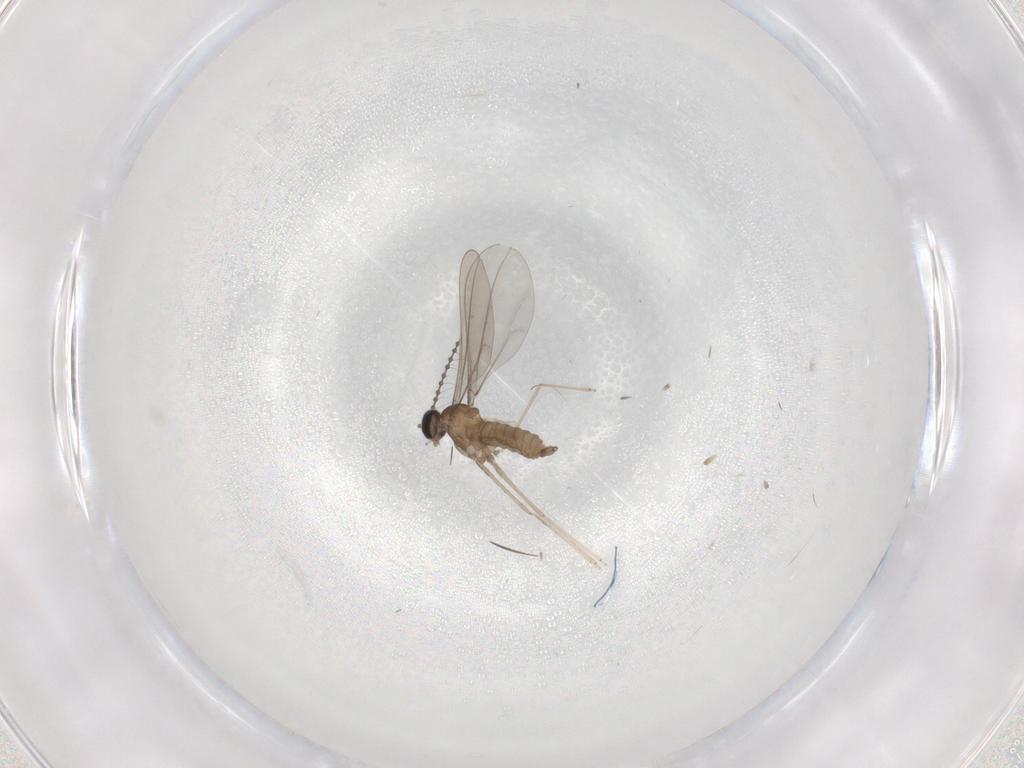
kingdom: Animalia
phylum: Arthropoda
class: Insecta
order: Diptera
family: Cecidomyiidae
